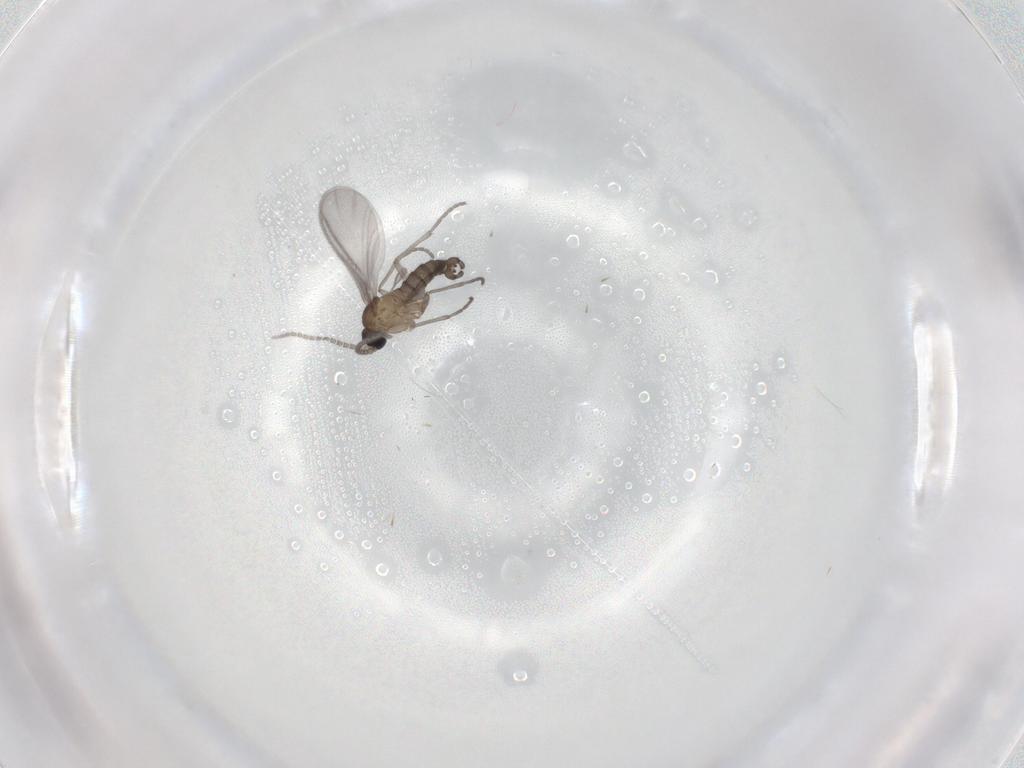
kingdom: Animalia
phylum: Arthropoda
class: Insecta
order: Diptera
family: Sciaridae
